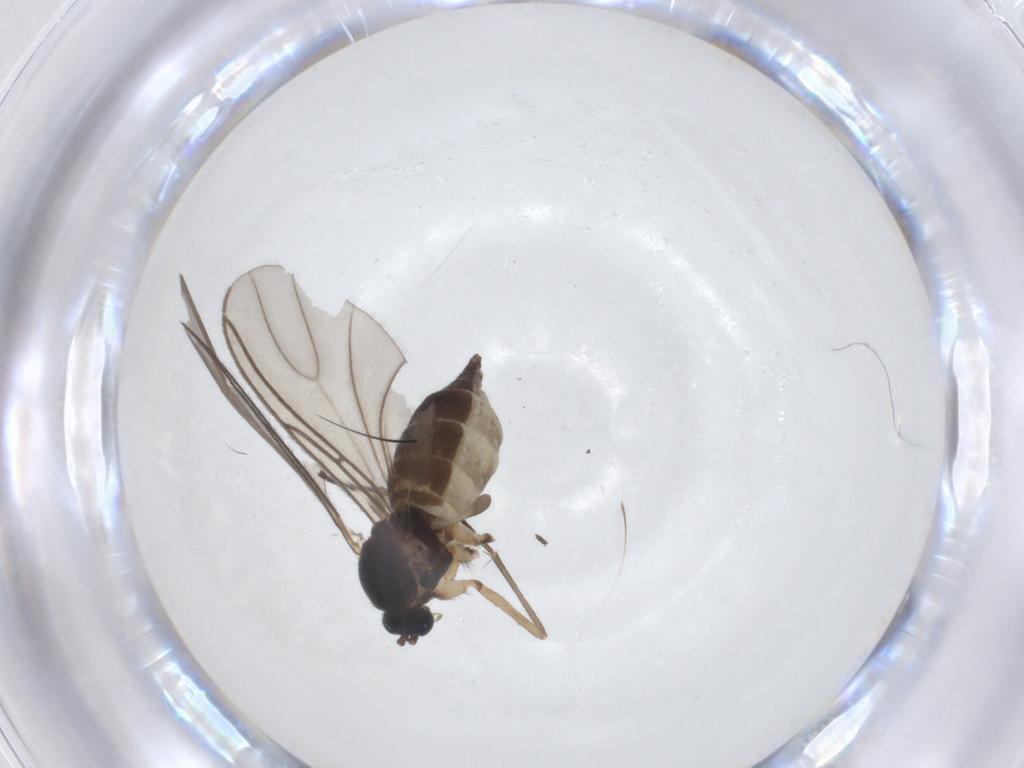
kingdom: Animalia
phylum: Arthropoda
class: Insecta
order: Diptera
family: Sciaridae
